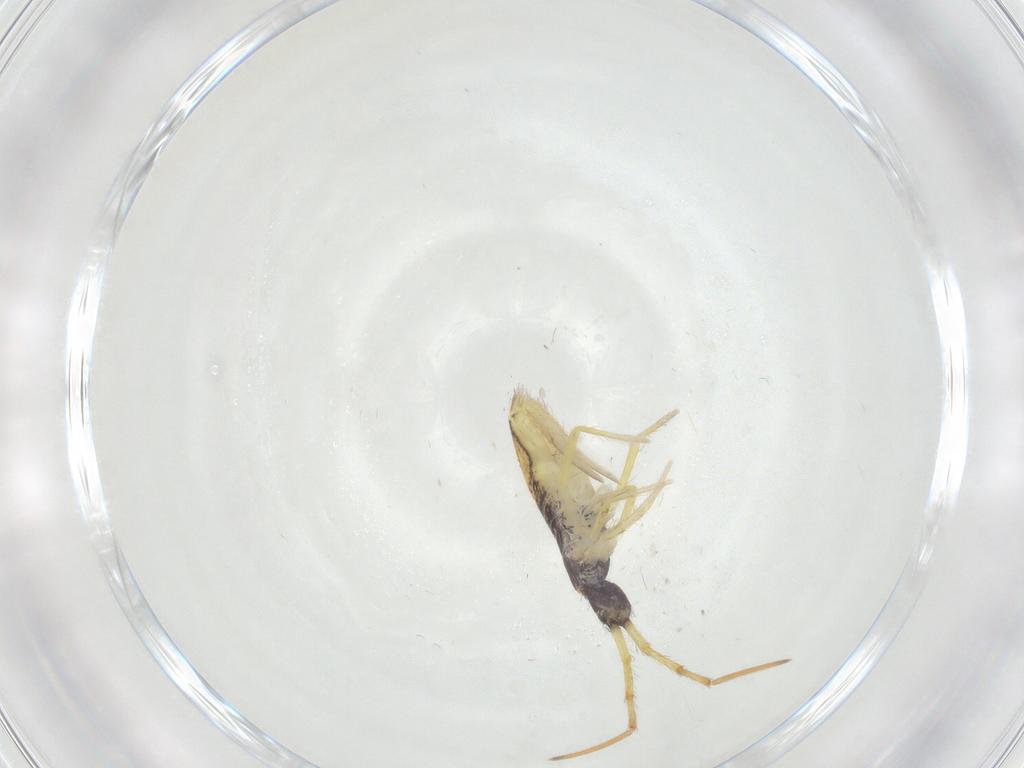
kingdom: Animalia
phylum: Arthropoda
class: Collembola
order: Entomobryomorpha
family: Entomobryidae
